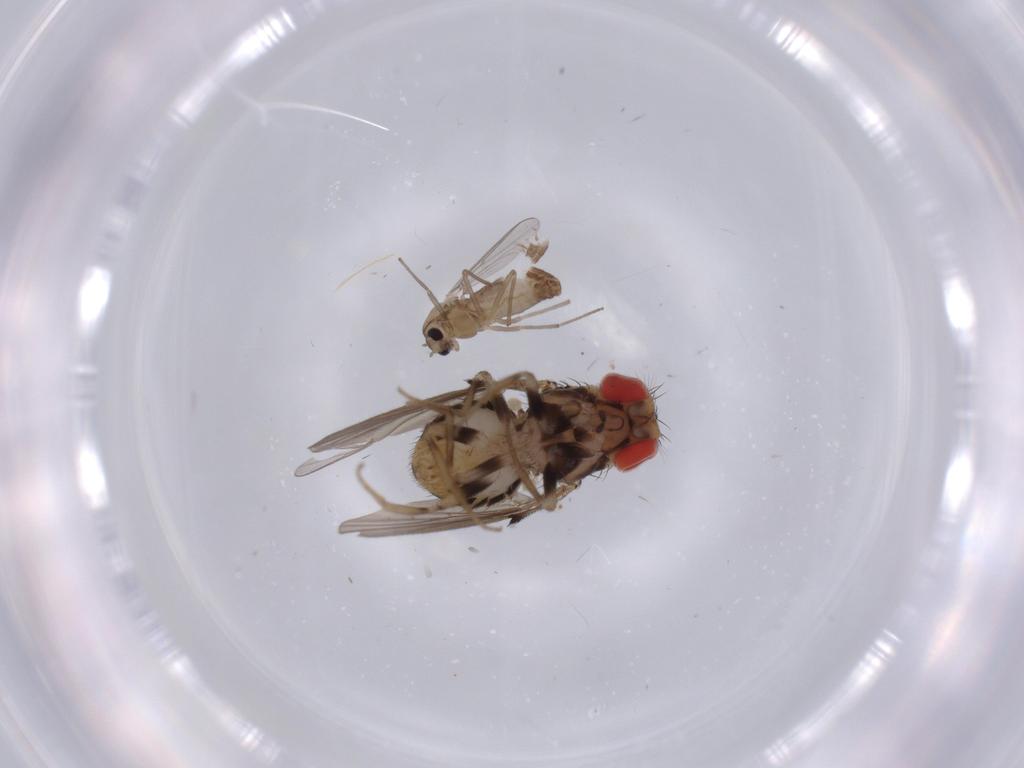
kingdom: Animalia
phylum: Arthropoda
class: Insecta
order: Diptera
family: Drosophilidae
